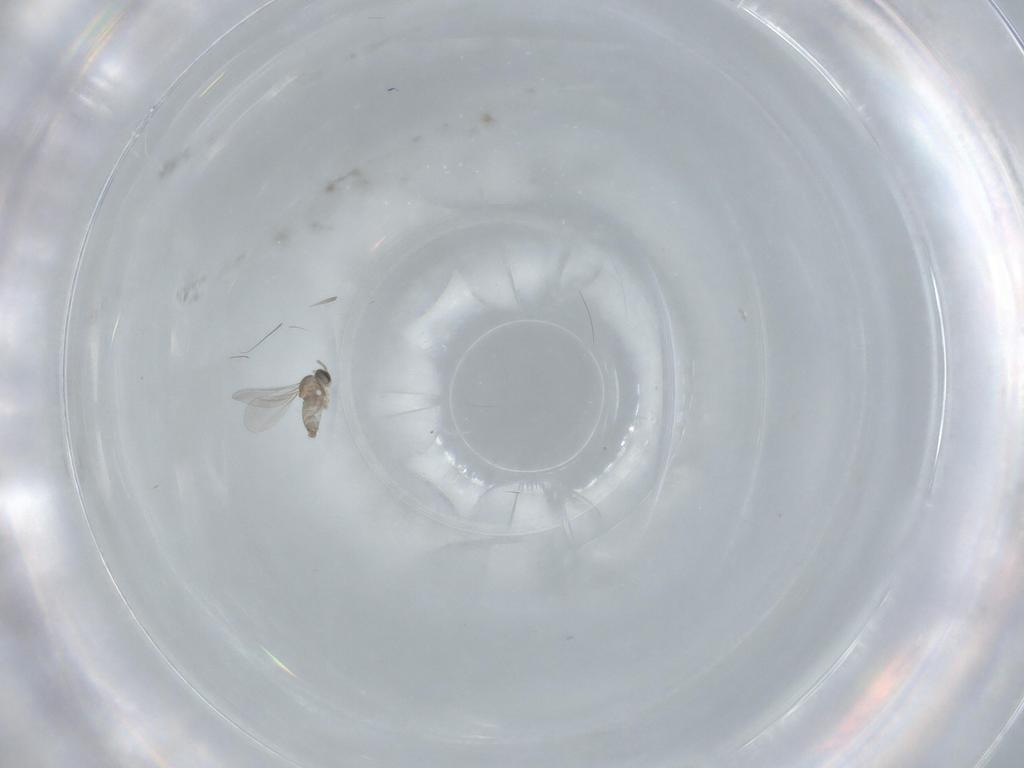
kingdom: Animalia
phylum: Arthropoda
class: Insecta
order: Diptera
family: Cecidomyiidae
